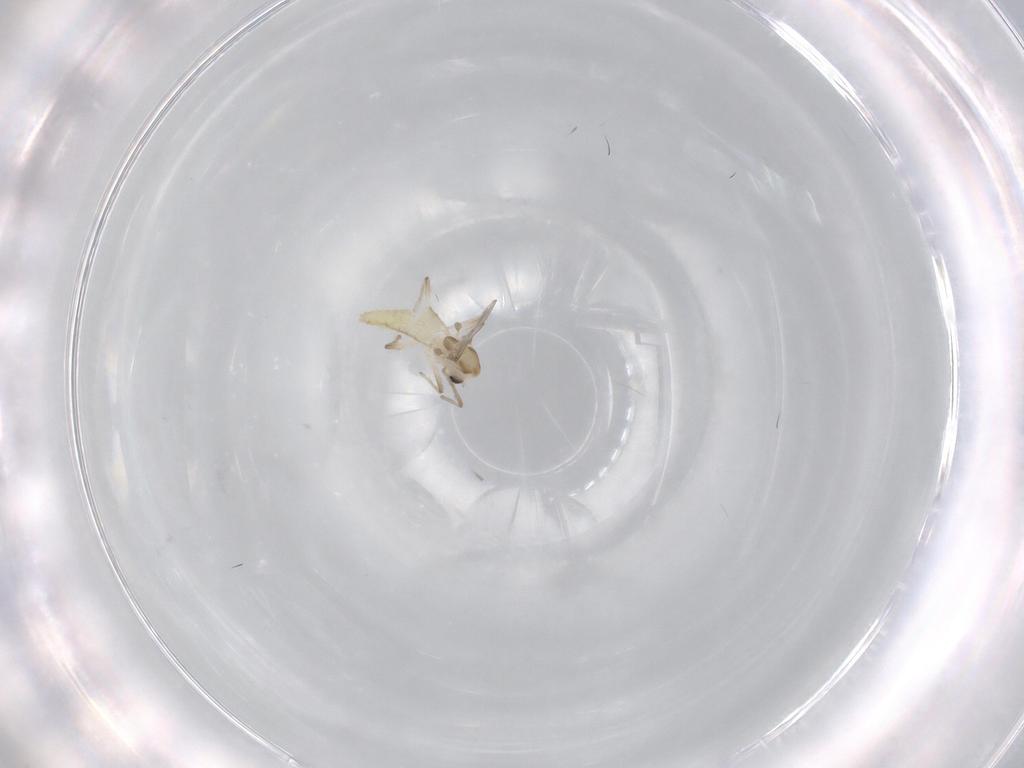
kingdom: Animalia
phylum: Arthropoda
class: Insecta
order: Diptera
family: Chironomidae
